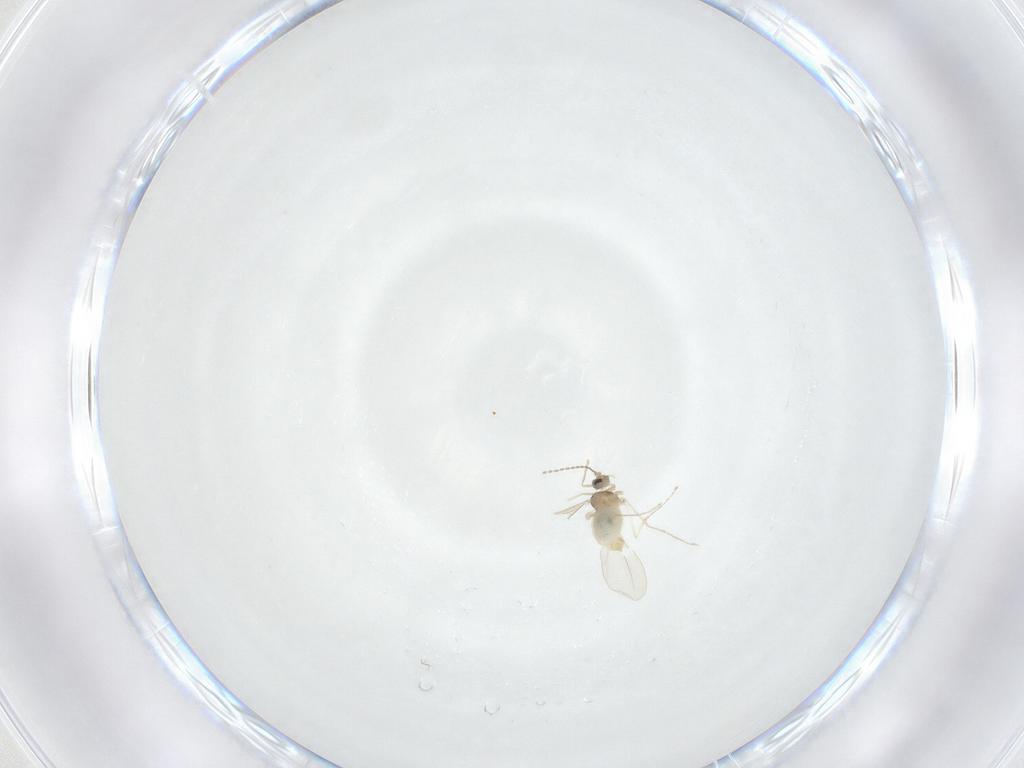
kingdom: Animalia
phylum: Arthropoda
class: Insecta
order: Diptera
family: Cecidomyiidae
